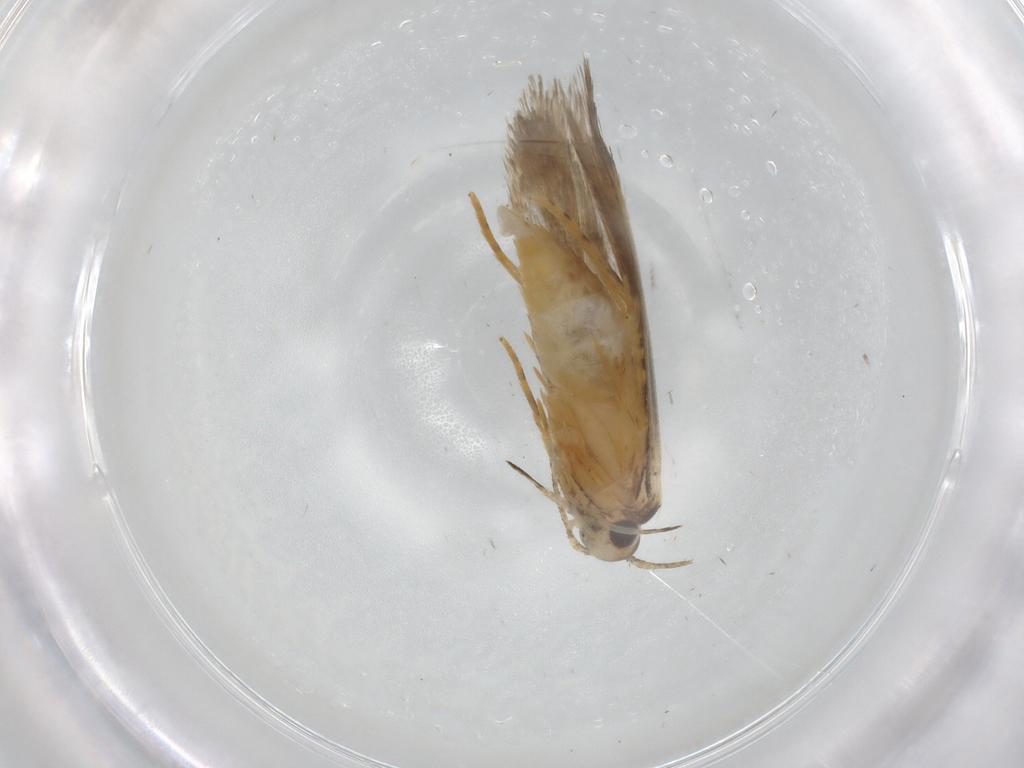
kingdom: Animalia
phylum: Arthropoda
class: Insecta
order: Lepidoptera
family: Autostichidae
